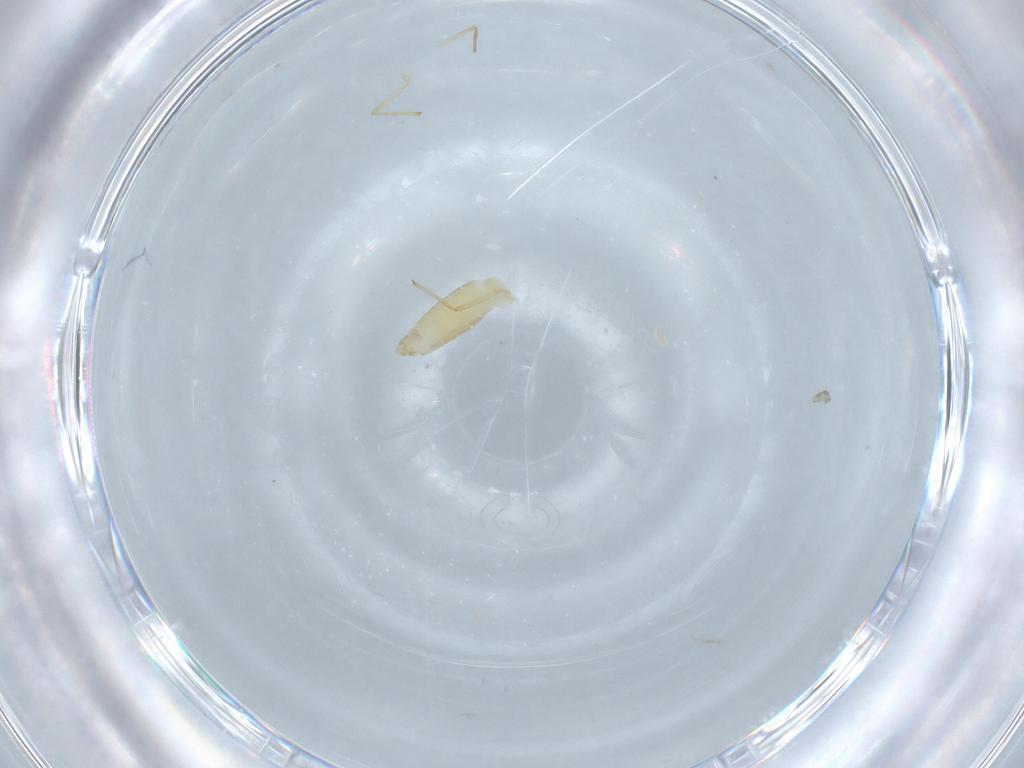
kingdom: Animalia
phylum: Arthropoda
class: Insecta
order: Diptera
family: Chironomidae
